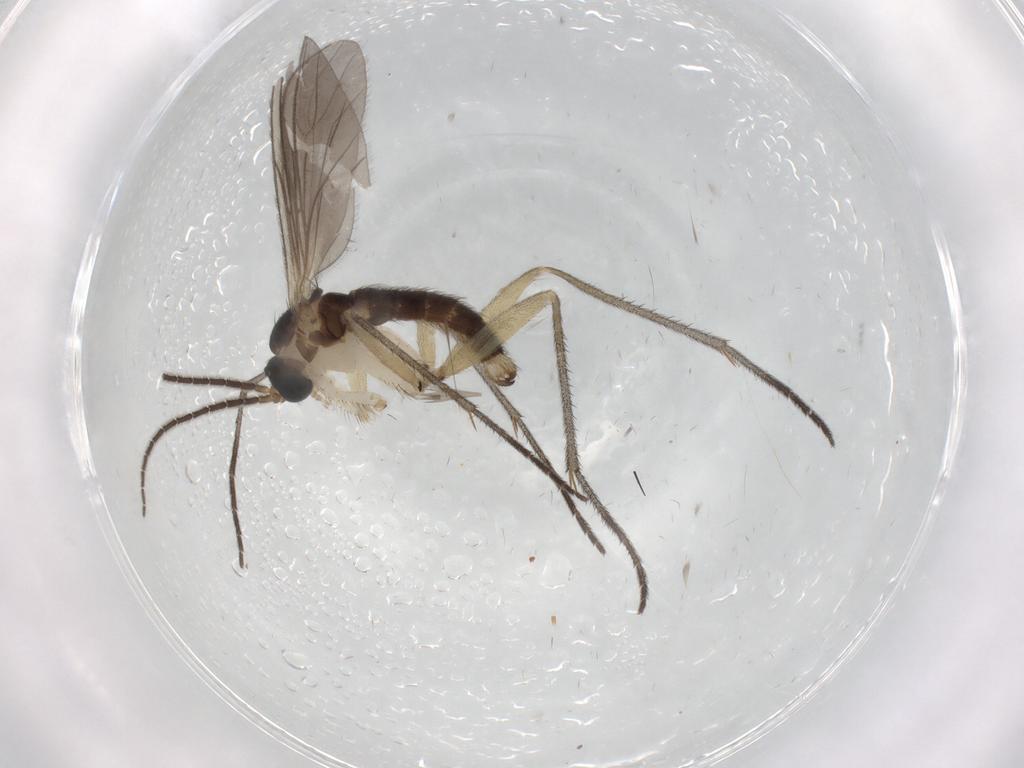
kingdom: Animalia
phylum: Arthropoda
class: Insecta
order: Diptera
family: Sciaridae
